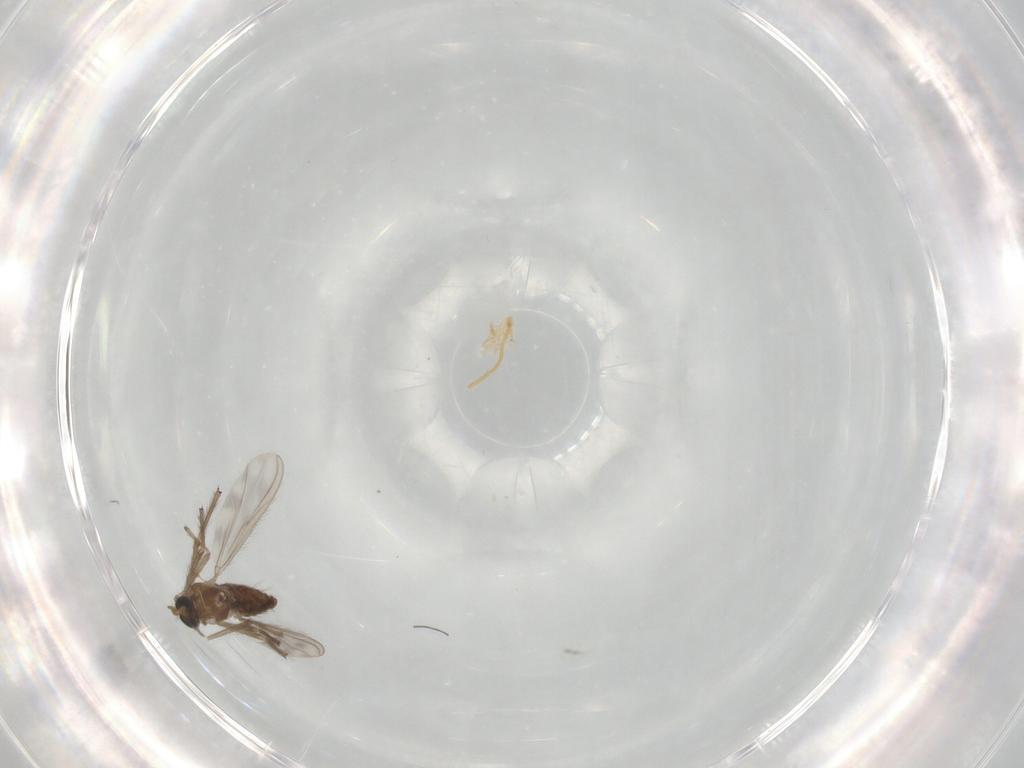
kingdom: Animalia
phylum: Arthropoda
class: Insecta
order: Diptera
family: Chironomidae
